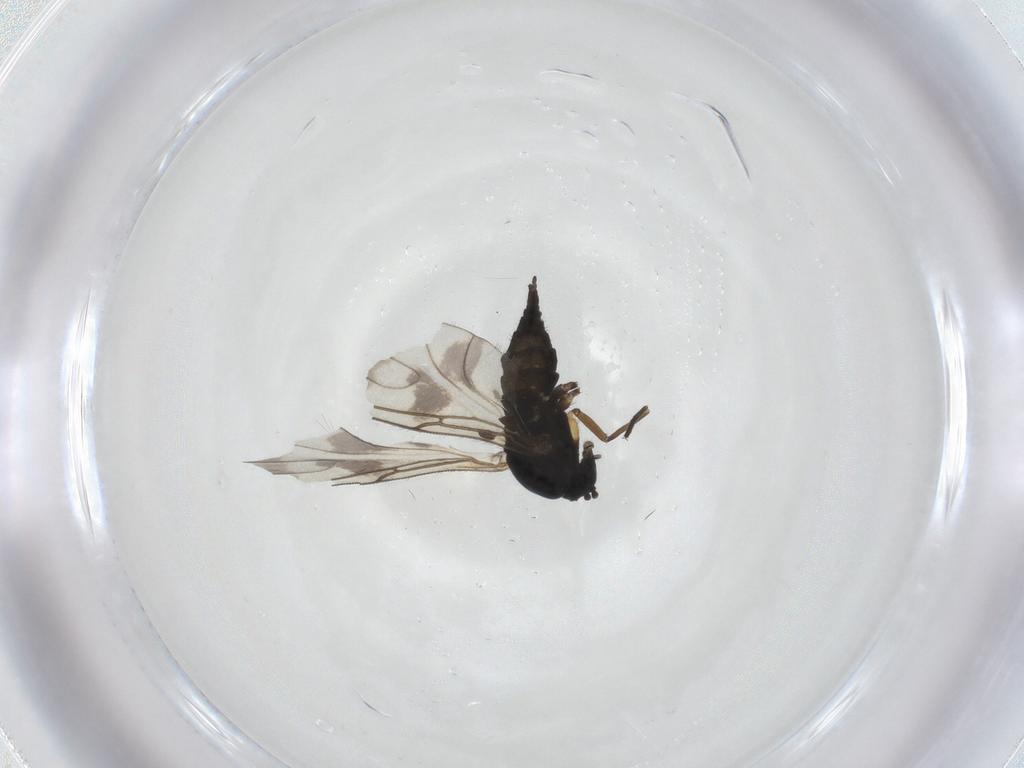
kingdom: Animalia
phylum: Arthropoda
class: Insecta
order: Diptera
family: Sciaridae
